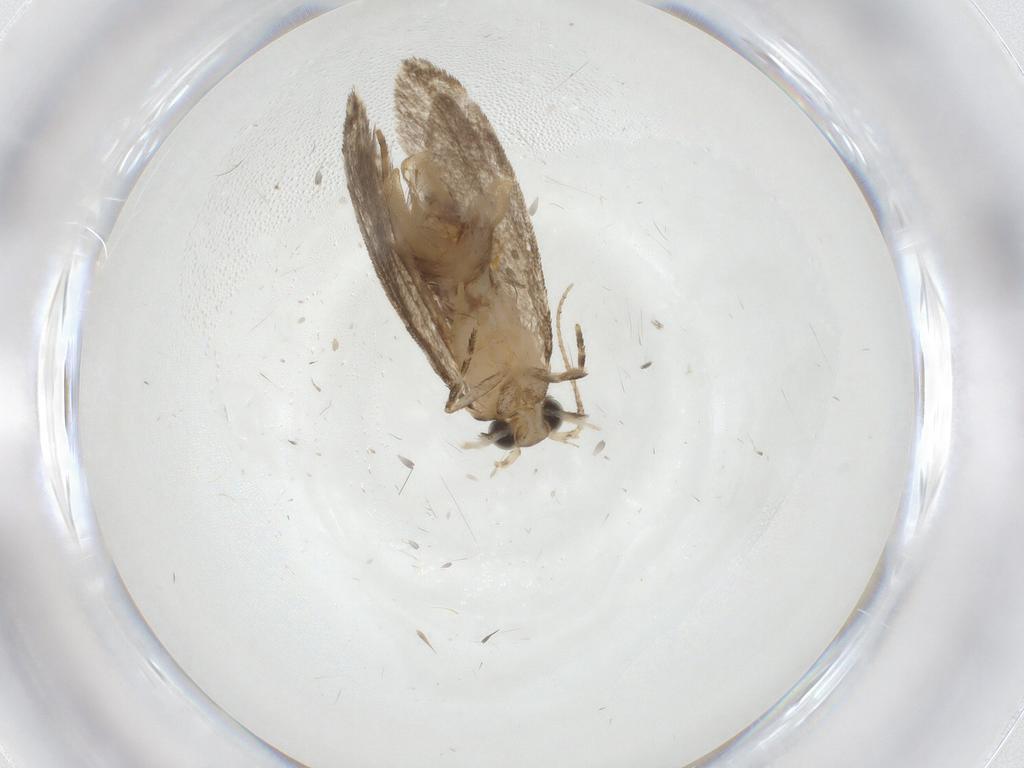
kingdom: Animalia
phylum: Arthropoda
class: Insecta
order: Lepidoptera
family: Tineidae
